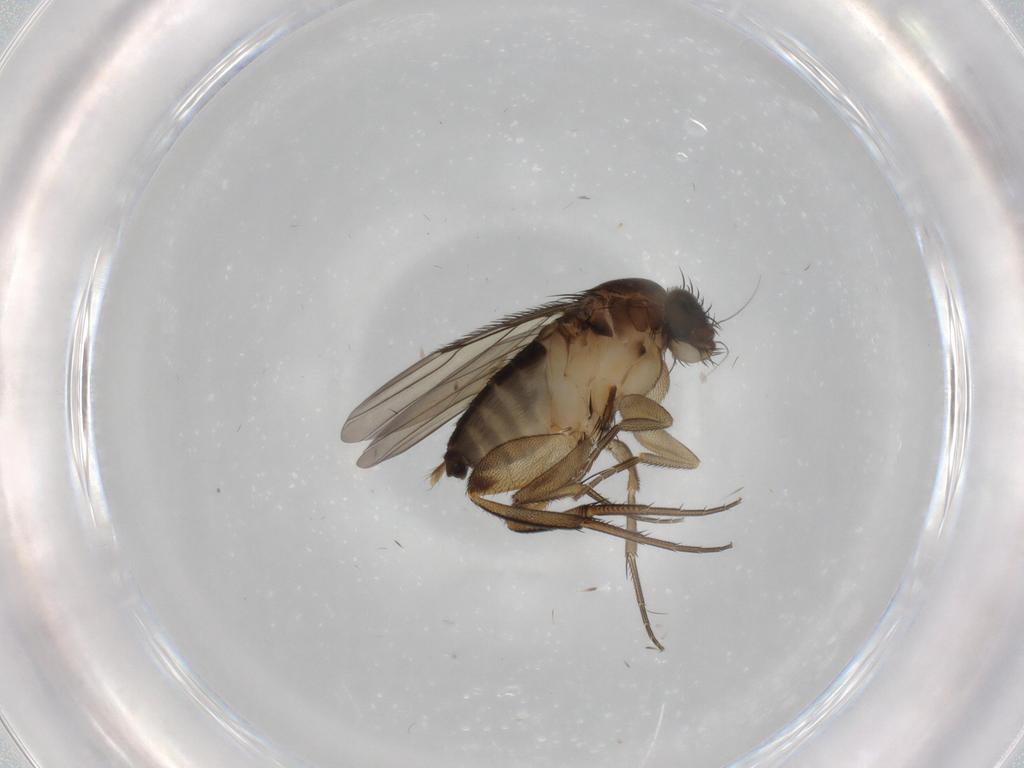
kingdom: Animalia
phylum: Arthropoda
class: Insecta
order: Diptera
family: Phoridae
